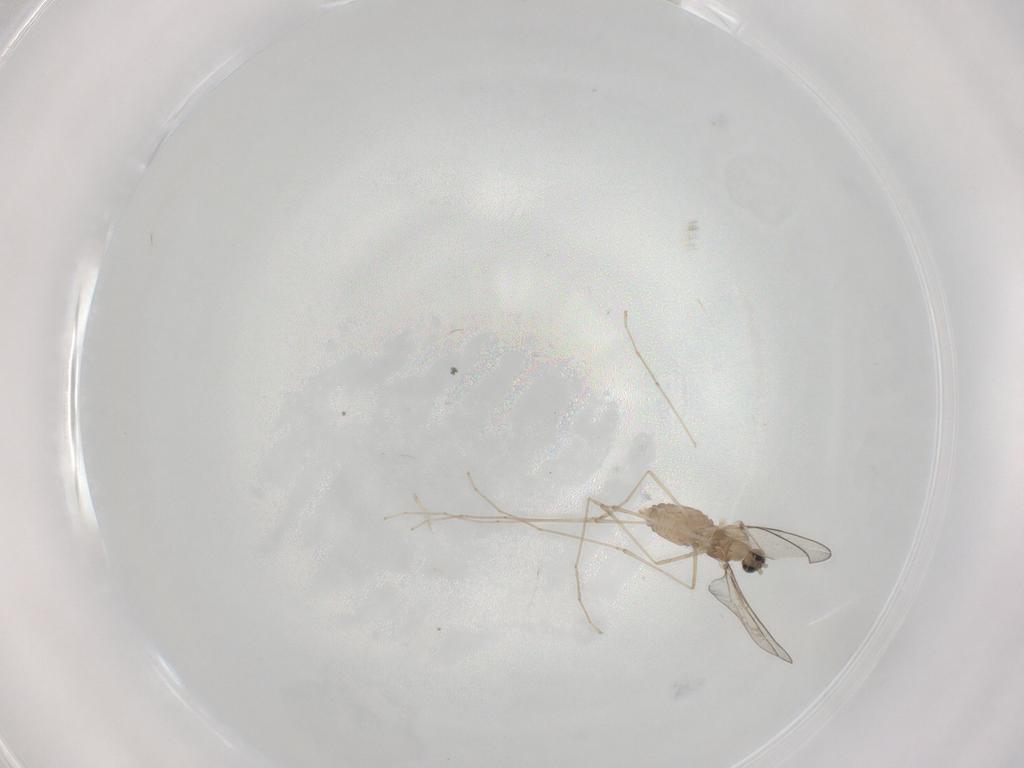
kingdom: Animalia
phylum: Arthropoda
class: Insecta
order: Diptera
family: Cecidomyiidae
